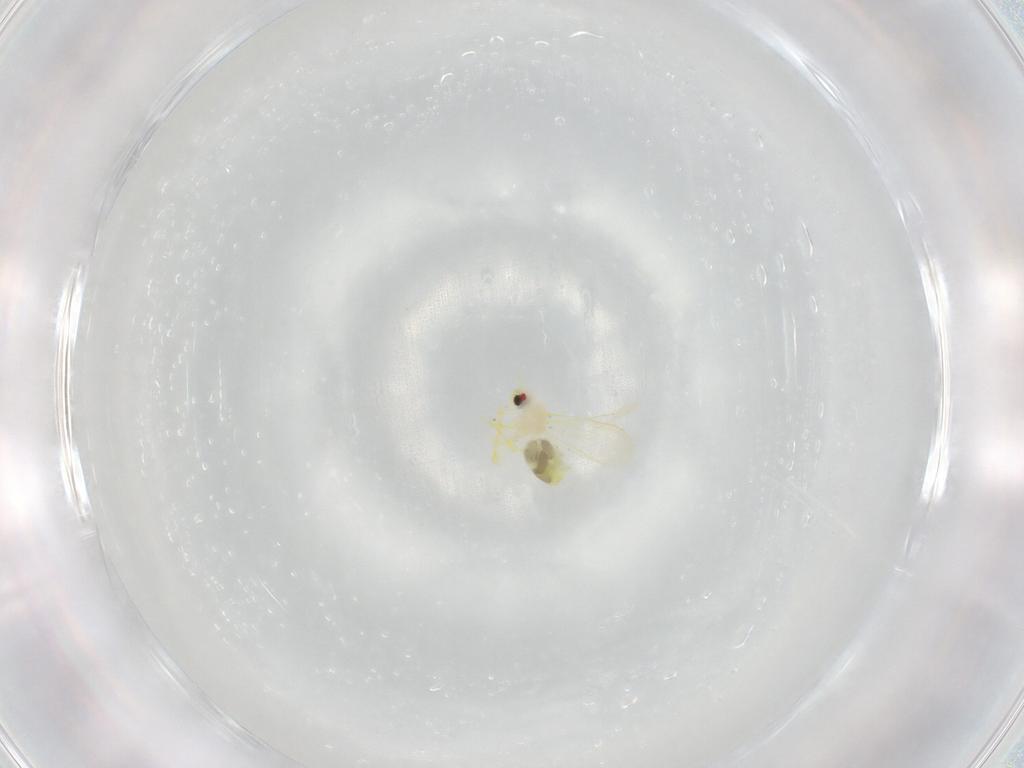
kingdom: Animalia
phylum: Arthropoda
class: Insecta
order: Hemiptera
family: Aleyrodidae
